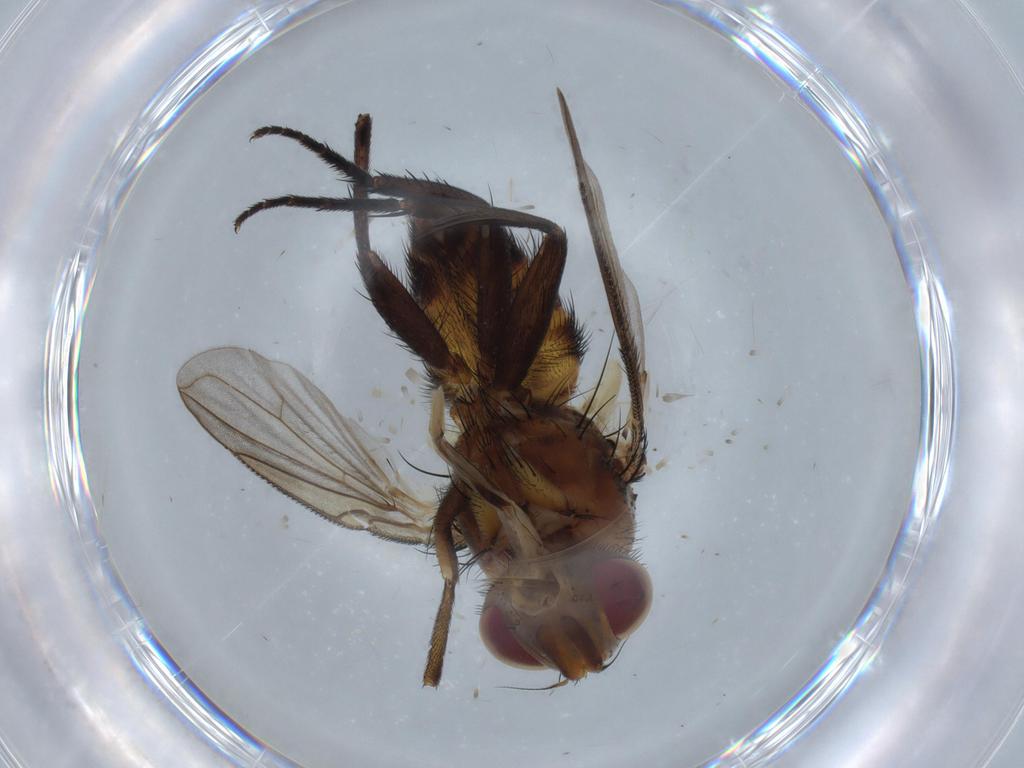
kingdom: Animalia
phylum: Arthropoda
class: Insecta
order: Diptera
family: Tachinidae
